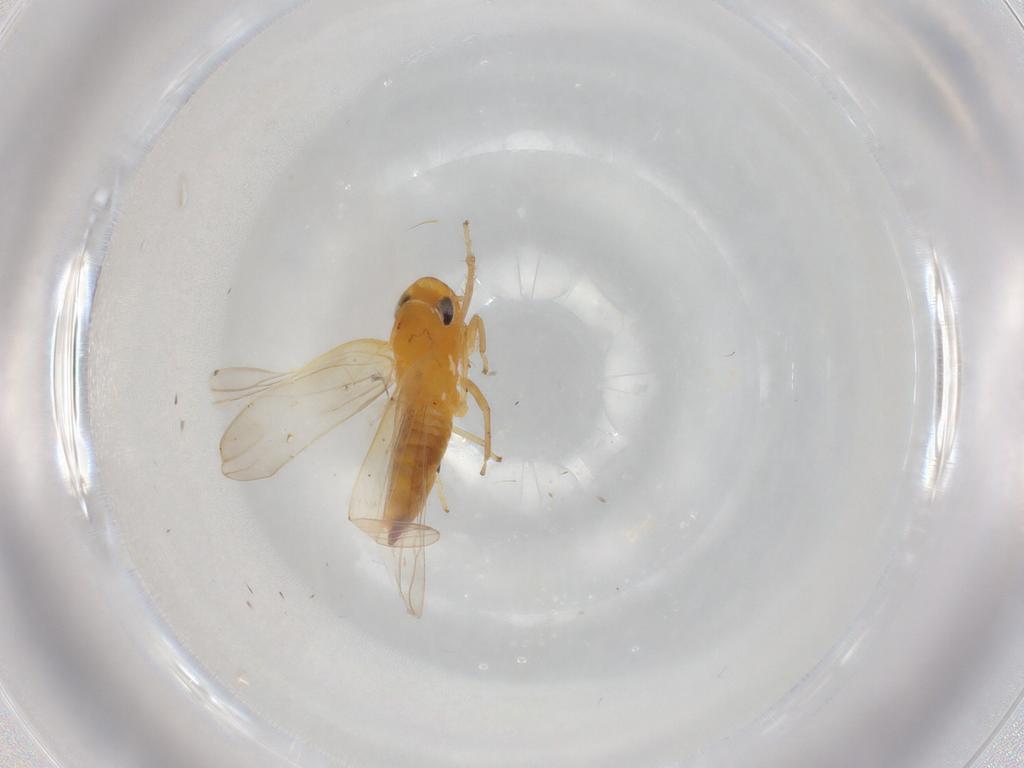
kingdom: Animalia
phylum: Arthropoda
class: Insecta
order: Hemiptera
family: Cicadellidae
